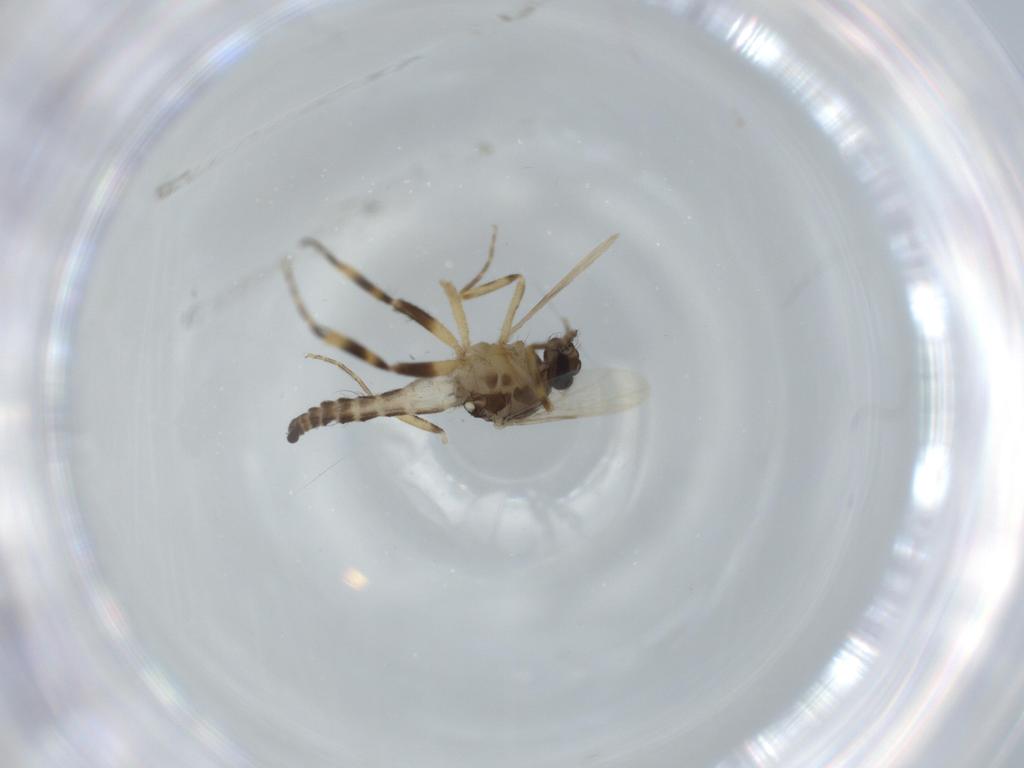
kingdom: Animalia
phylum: Arthropoda
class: Insecta
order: Diptera
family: Ceratopogonidae
